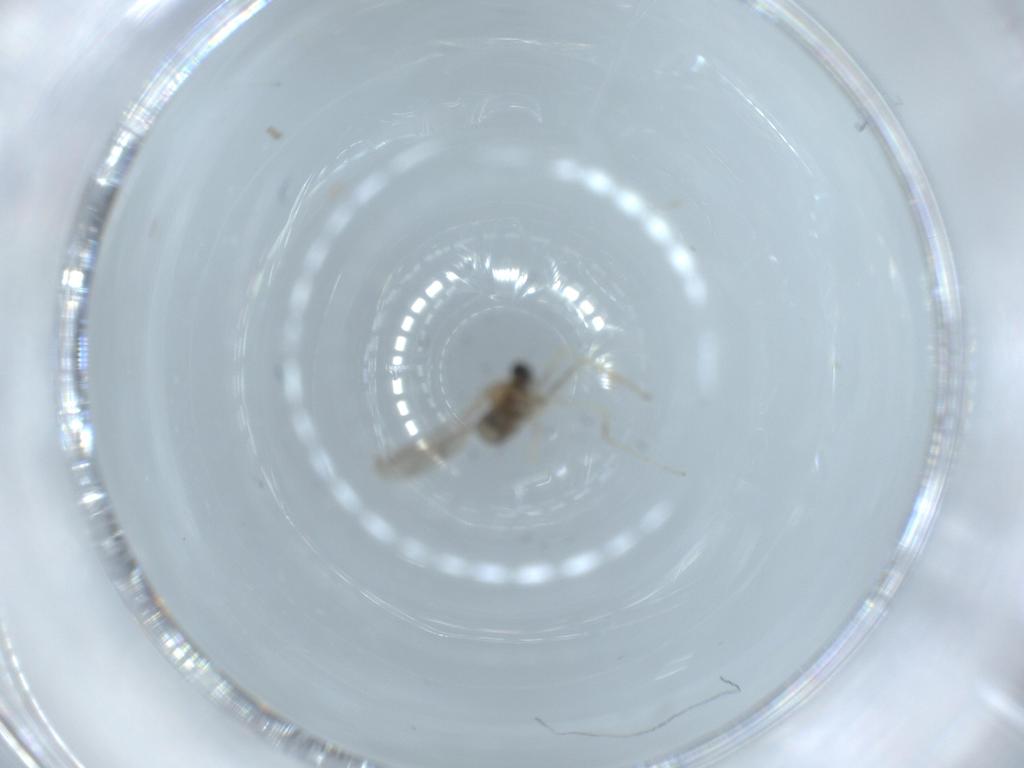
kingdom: Animalia
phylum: Arthropoda
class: Insecta
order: Diptera
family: Cecidomyiidae
